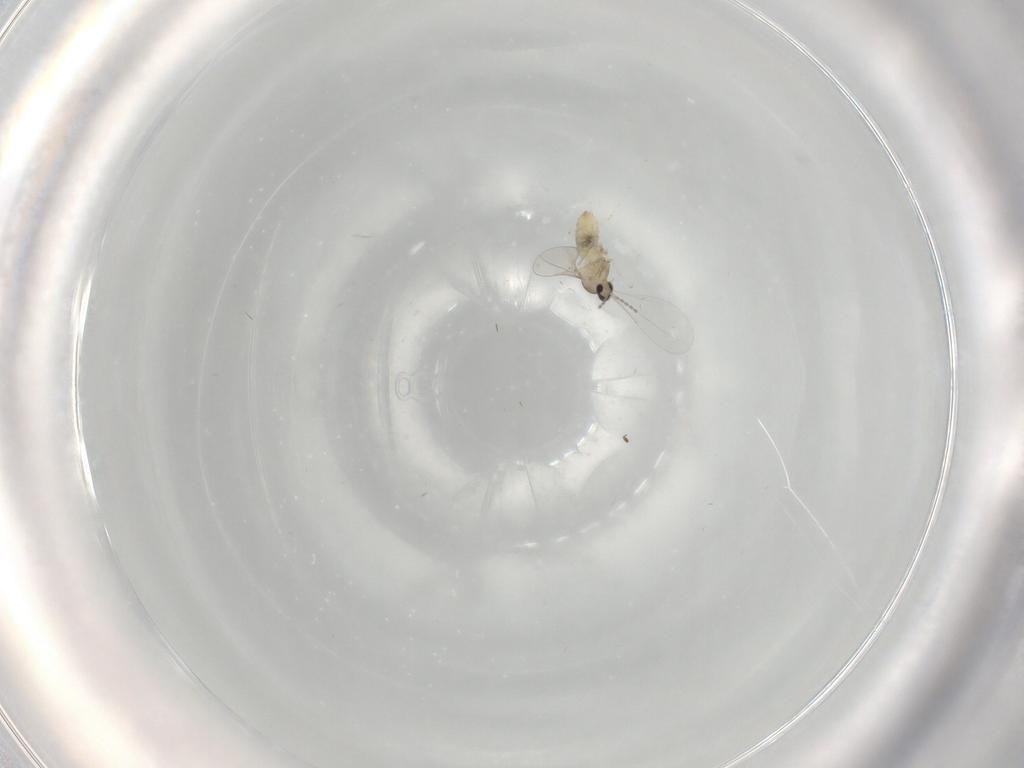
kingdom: Animalia
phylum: Arthropoda
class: Insecta
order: Diptera
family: Cecidomyiidae
